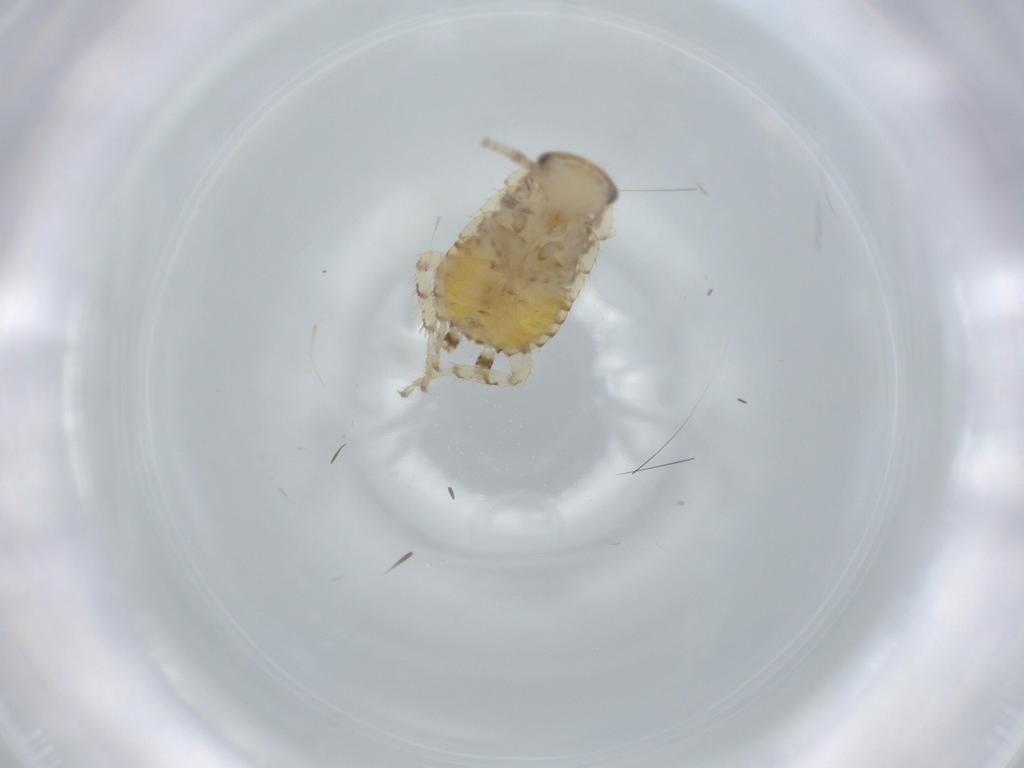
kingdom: Animalia
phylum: Arthropoda
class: Insecta
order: Blattodea
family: Ectobiidae
